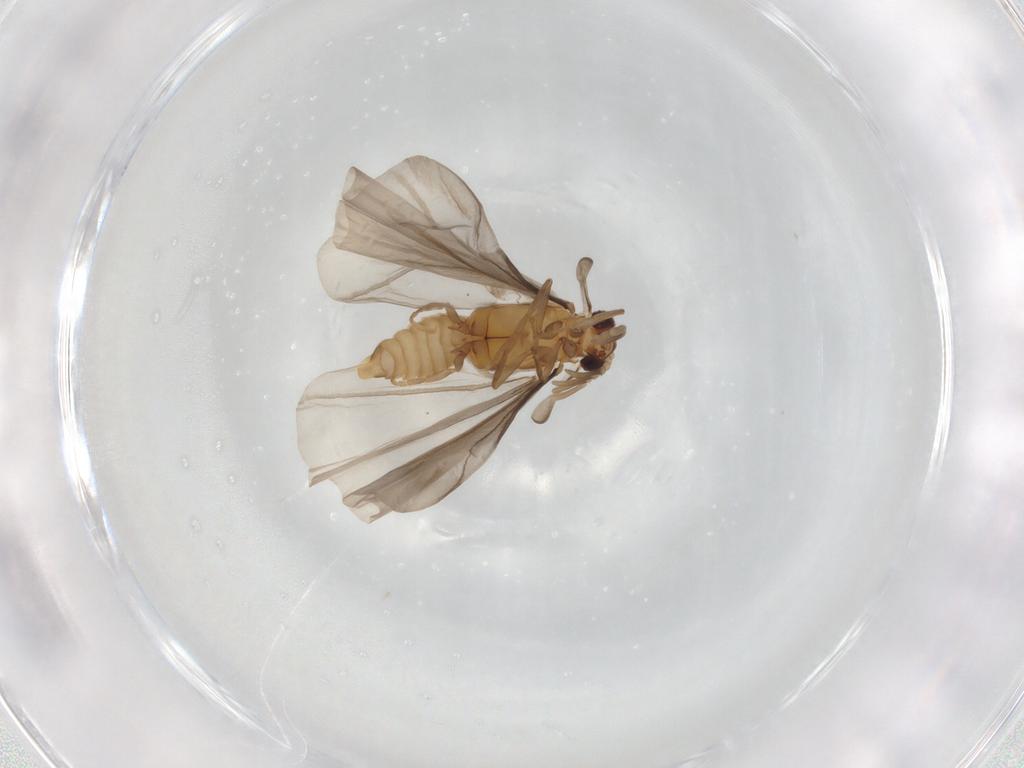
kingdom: Animalia
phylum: Arthropoda
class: Insecta
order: Strepsiptera
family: Mengenillidae
